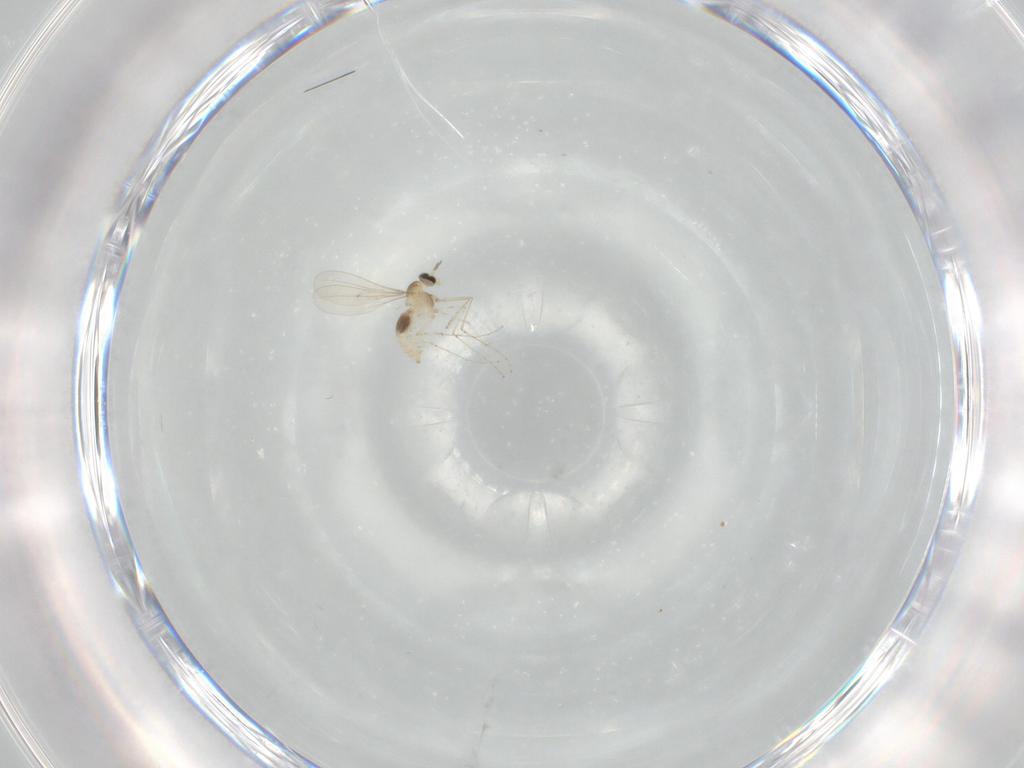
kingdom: Animalia
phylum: Arthropoda
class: Insecta
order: Diptera
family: Cecidomyiidae
